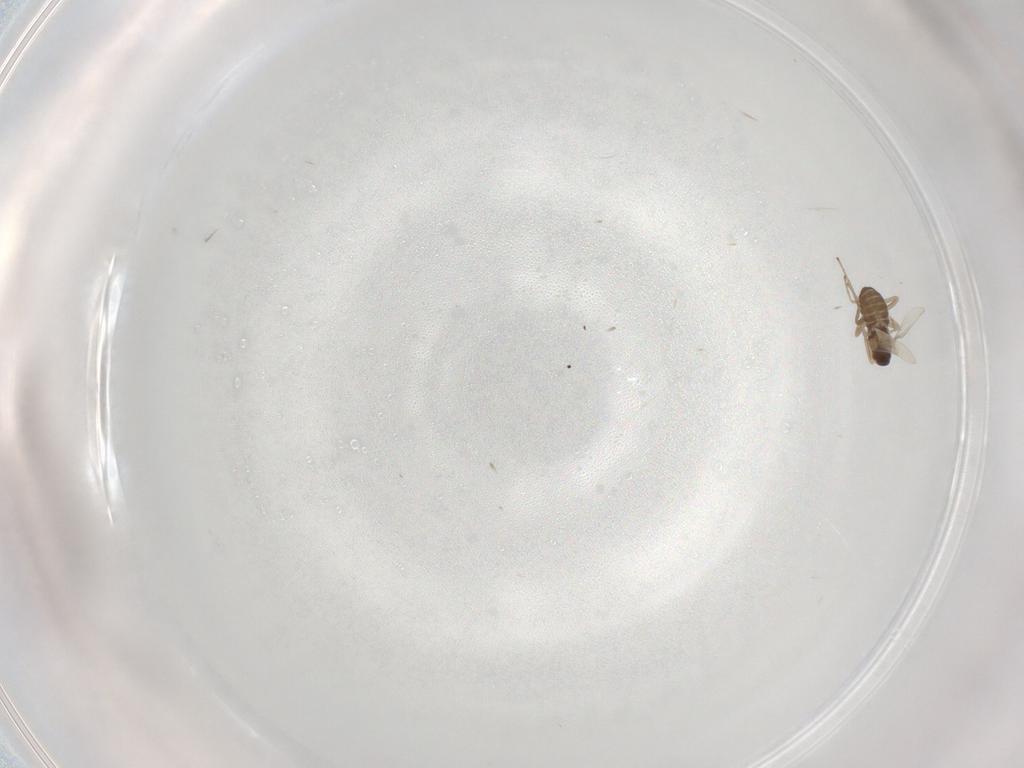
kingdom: Animalia
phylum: Arthropoda
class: Insecta
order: Diptera
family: Cecidomyiidae
